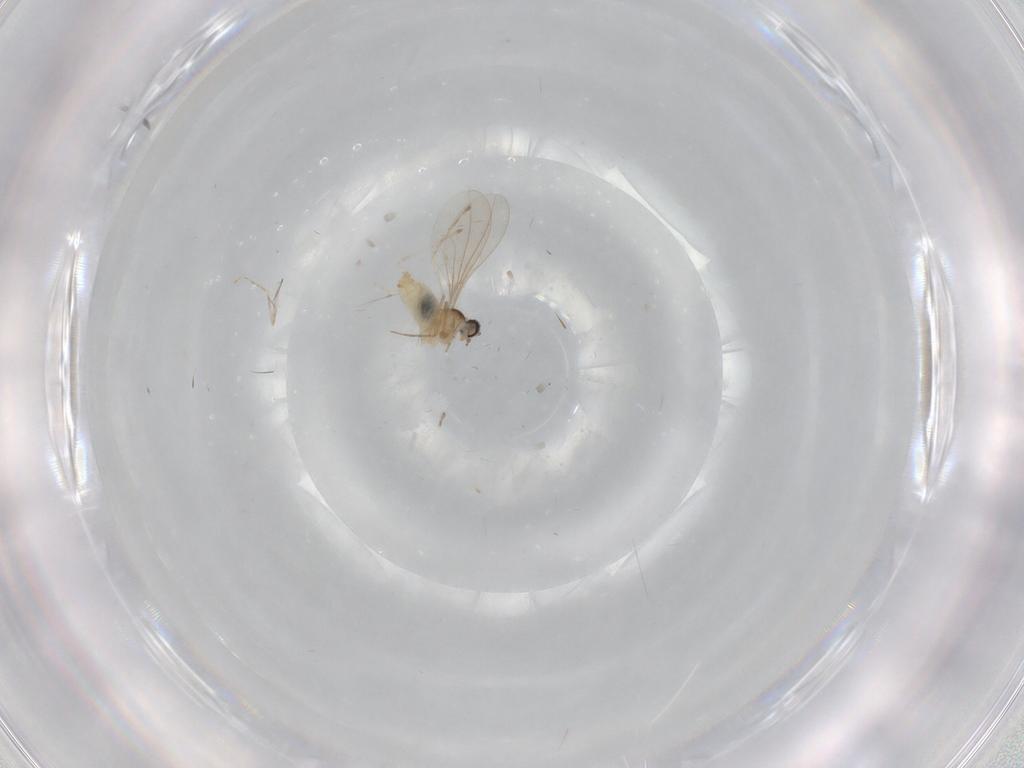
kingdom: Animalia
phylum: Arthropoda
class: Insecta
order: Diptera
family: Cecidomyiidae
